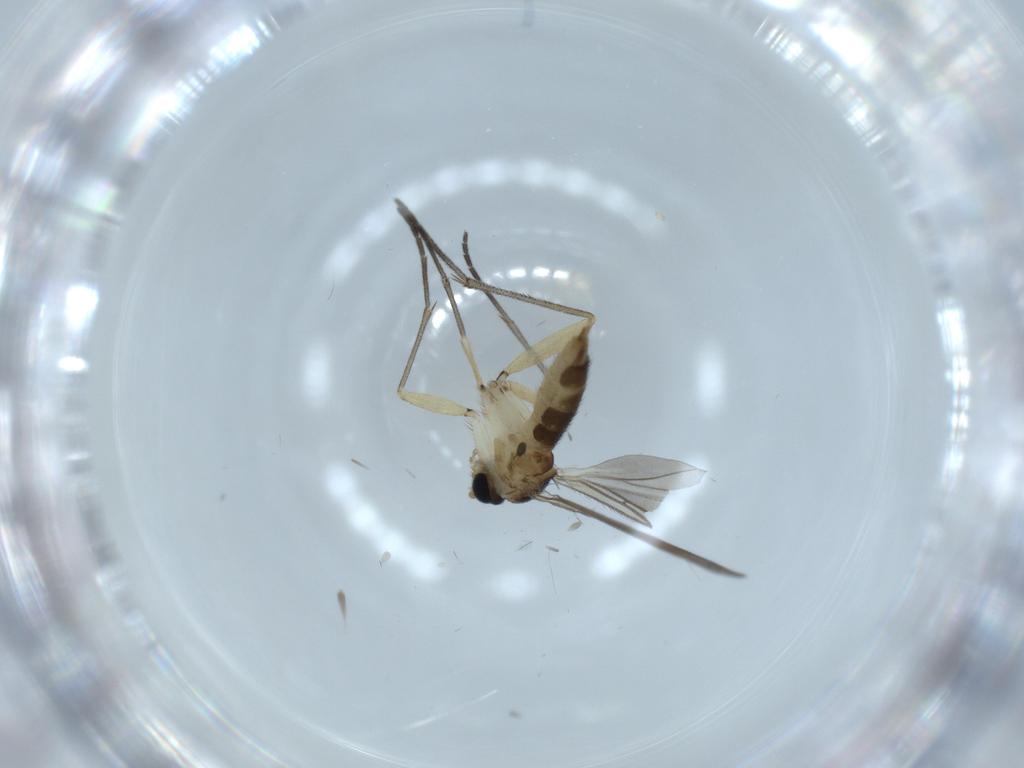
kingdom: Animalia
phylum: Arthropoda
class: Insecta
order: Diptera
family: Sciaridae
